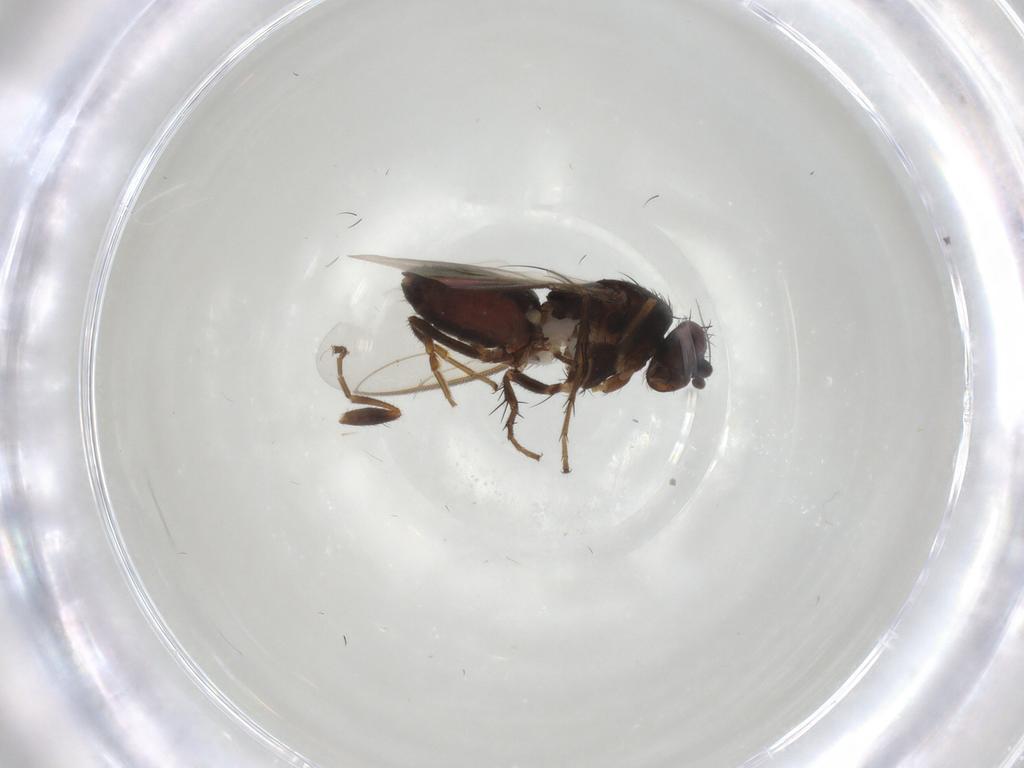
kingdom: Animalia
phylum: Arthropoda
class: Insecta
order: Diptera
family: Sphaeroceridae
